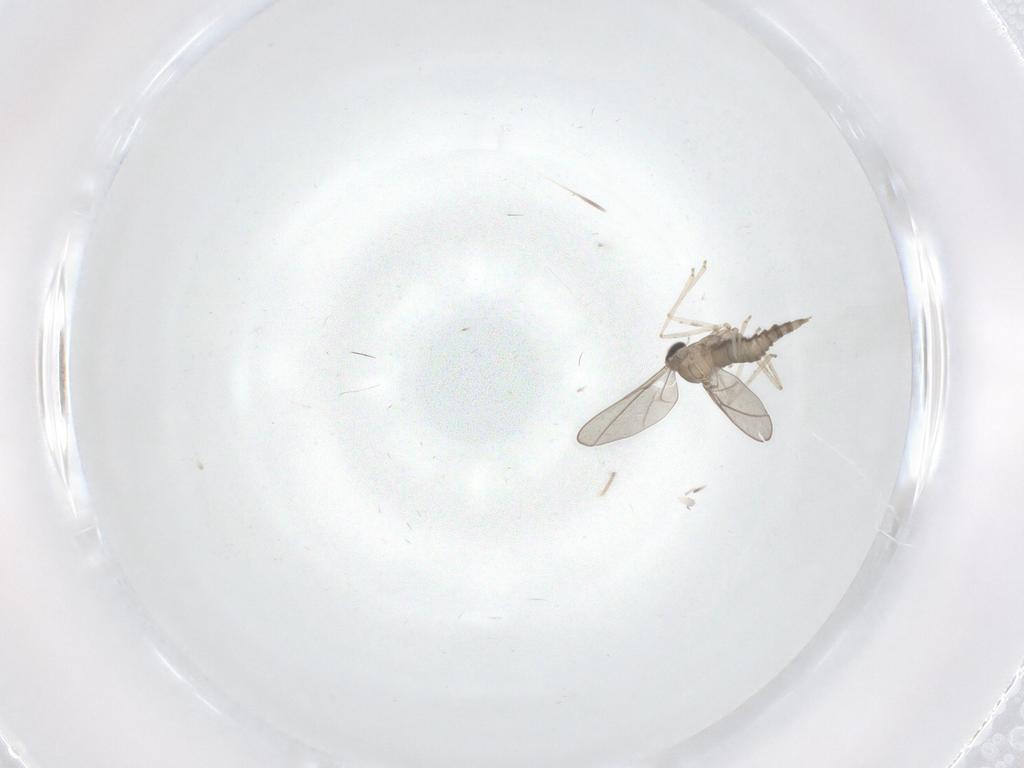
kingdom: Animalia
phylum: Arthropoda
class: Insecta
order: Diptera
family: Cecidomyiidae
